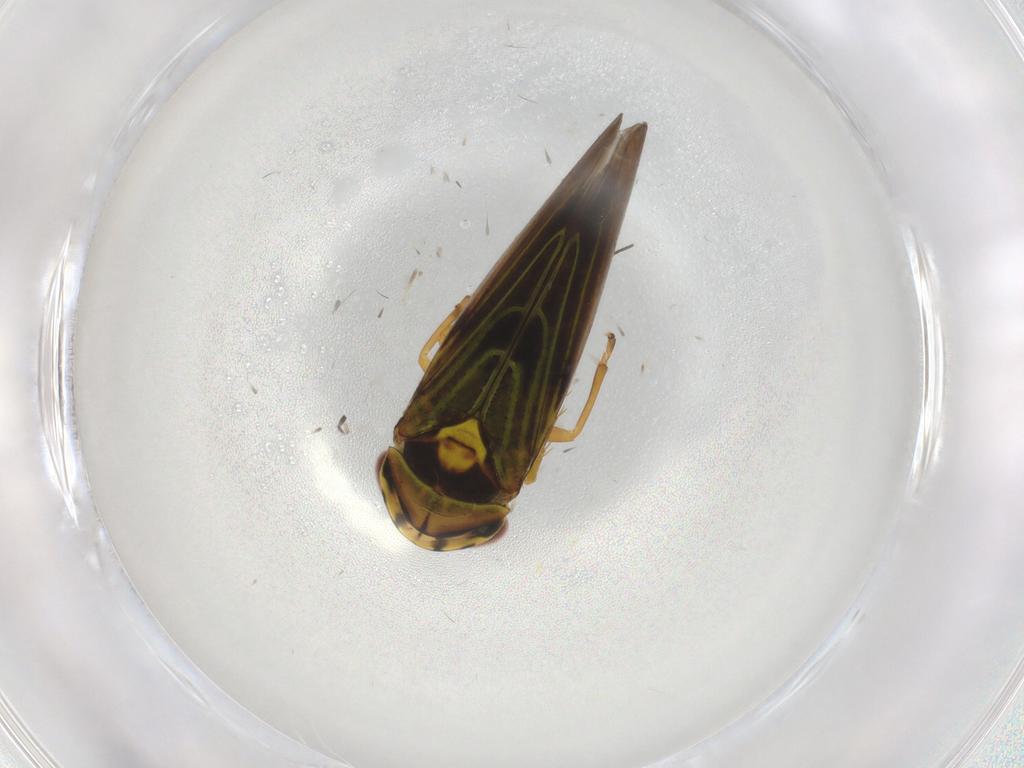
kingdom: Animalia
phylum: Arthropoda
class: Insecta
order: Hemiptera
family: Cicadellidae
